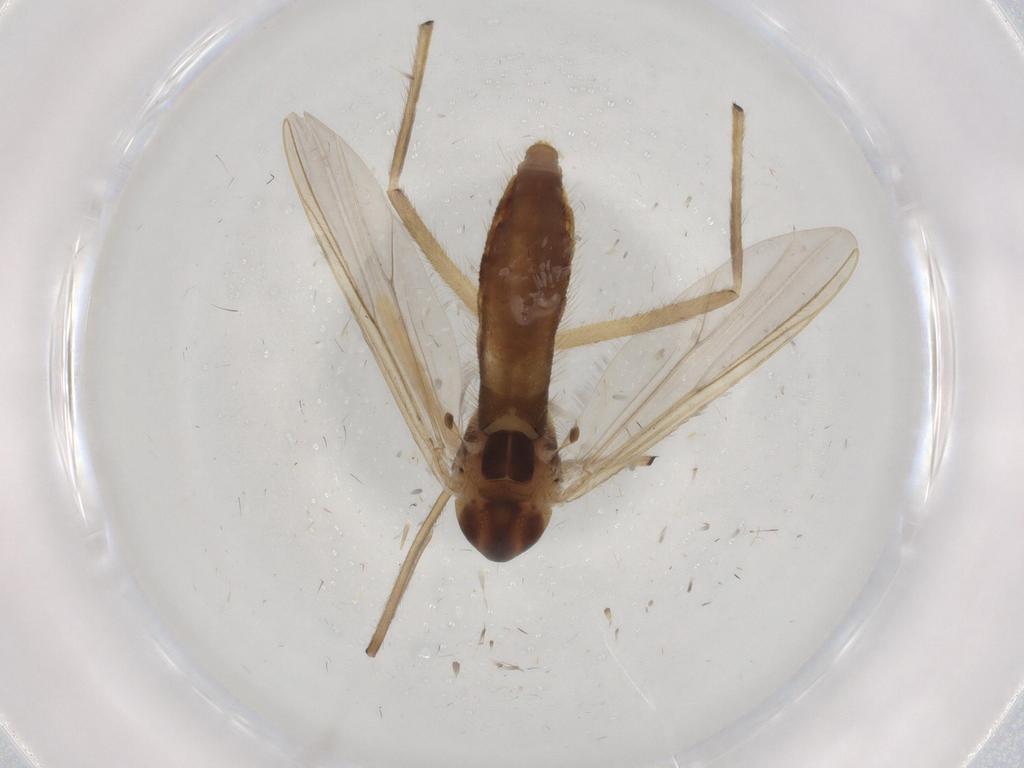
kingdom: Animalia
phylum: Arthropoda
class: Insecta
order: Diptera
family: Chironomidae
